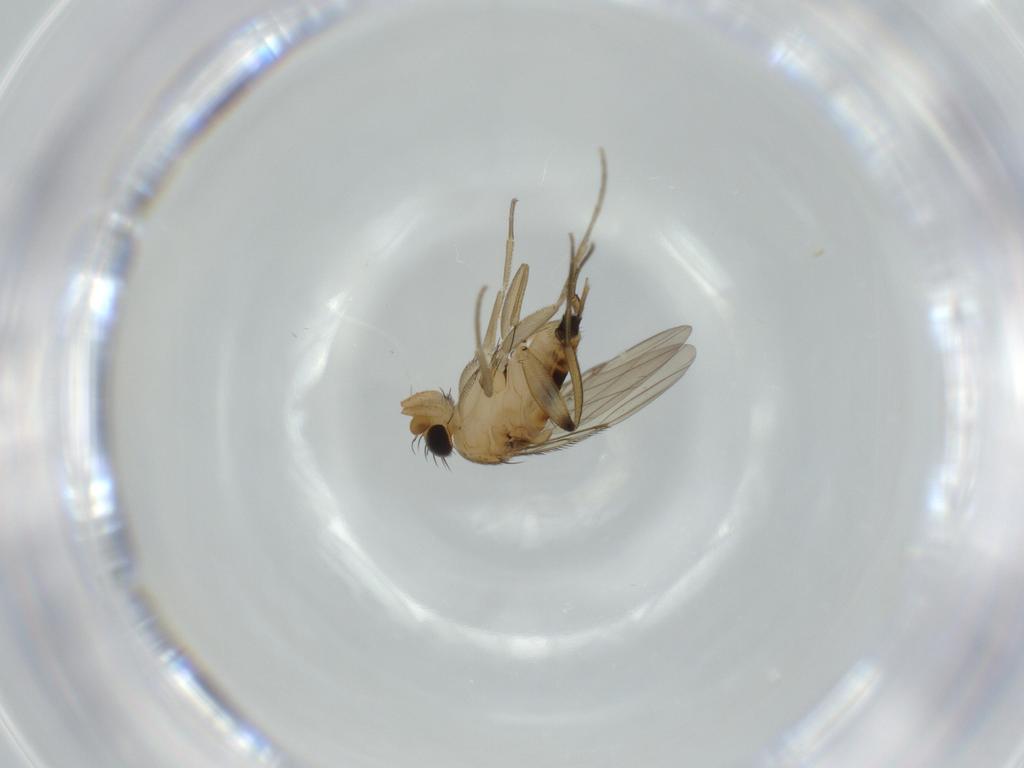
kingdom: Animalia
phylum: Arthropoda
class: Insecta
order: Diptera
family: Phoridae
